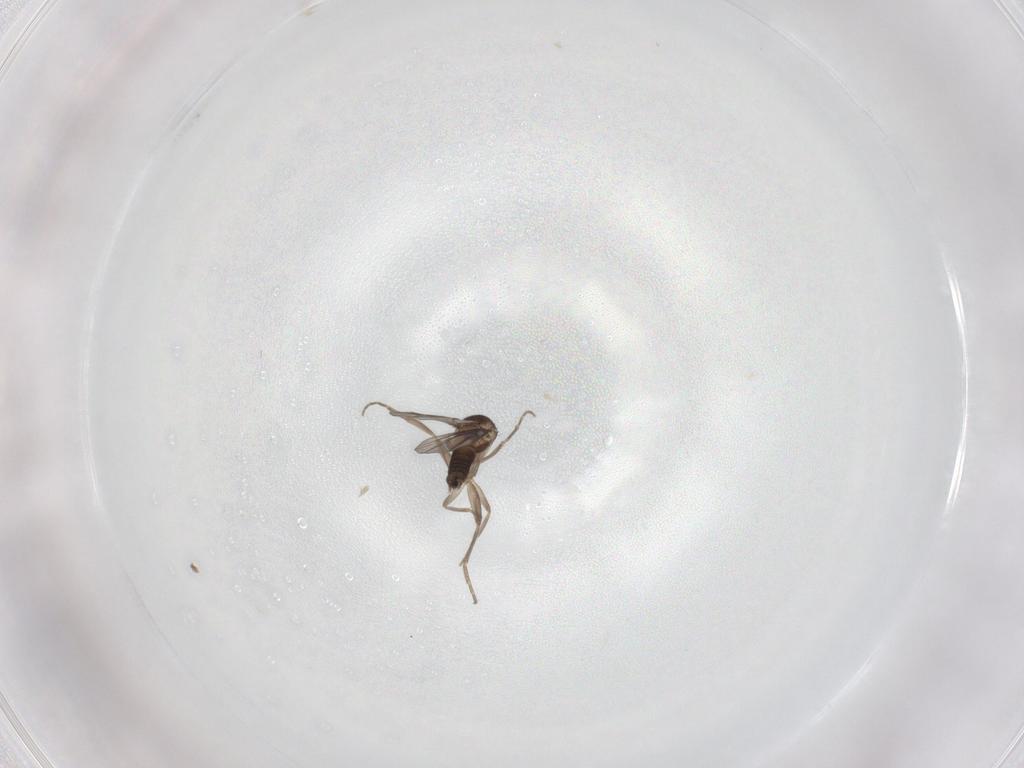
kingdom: Animalia
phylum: Arthropoda
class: Insecta
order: Diptera
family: Phoridae
